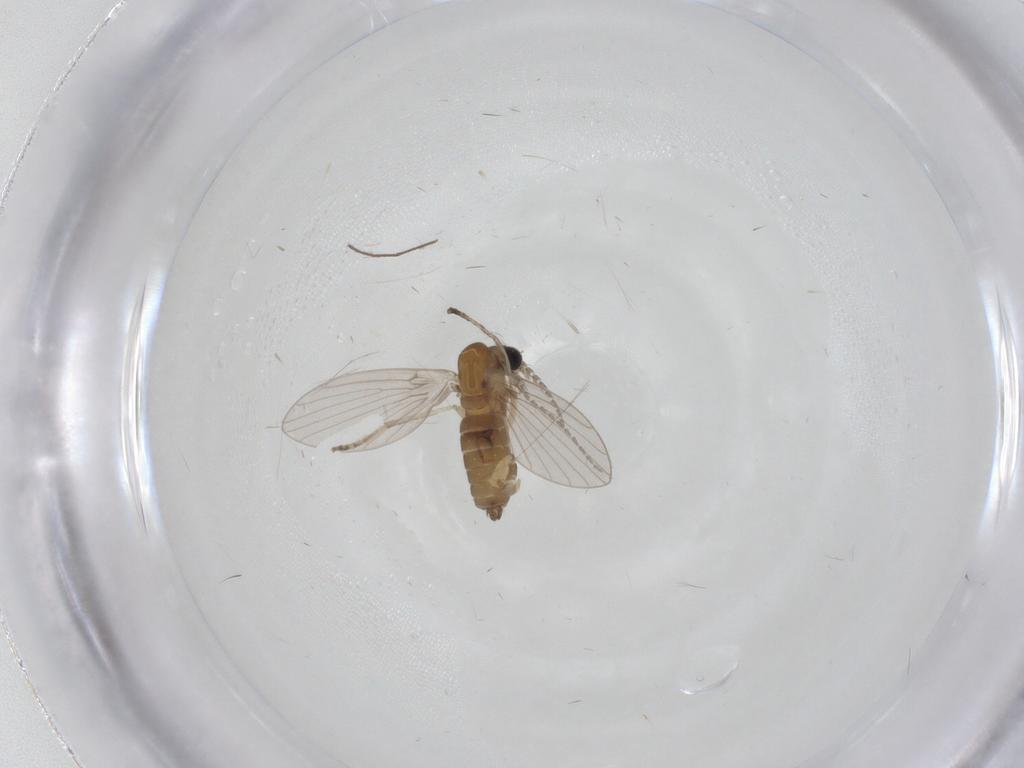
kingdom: Animalia
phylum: Arthropoda
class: Insecta
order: Diptera
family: Chironomidae
